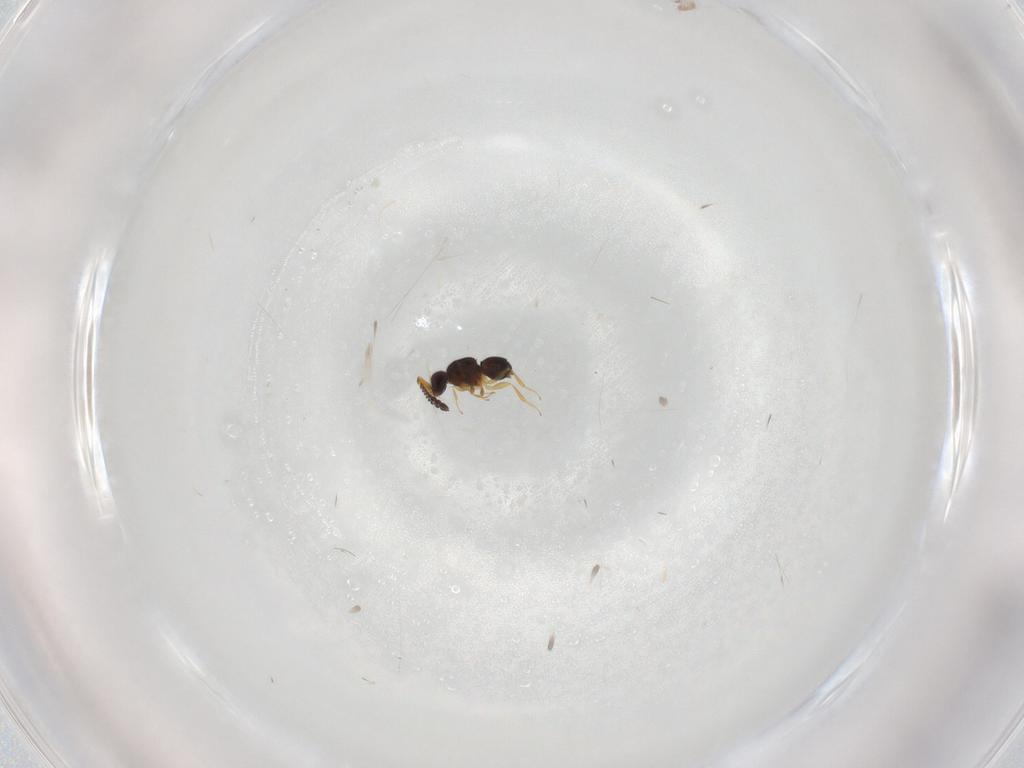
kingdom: Animalia
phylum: Arthropoda
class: Insecta
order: Hymenoptera
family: Ceraphronidae
